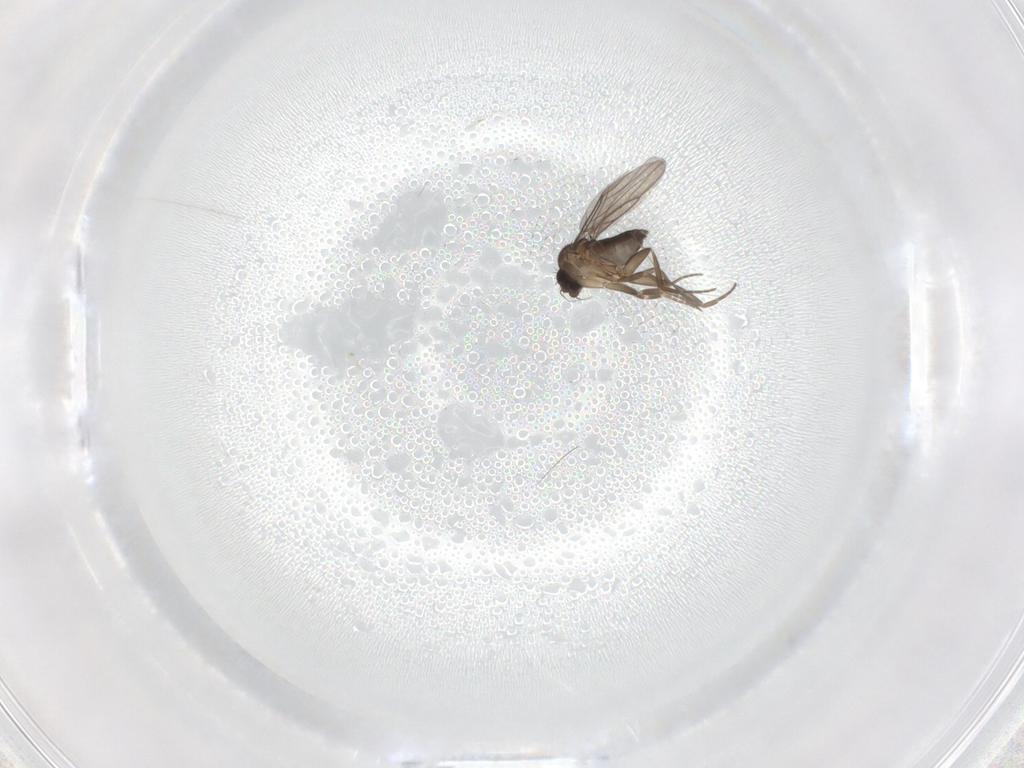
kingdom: Animalia
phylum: Arthropoda
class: Insecta
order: Diptera
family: Phoridae
